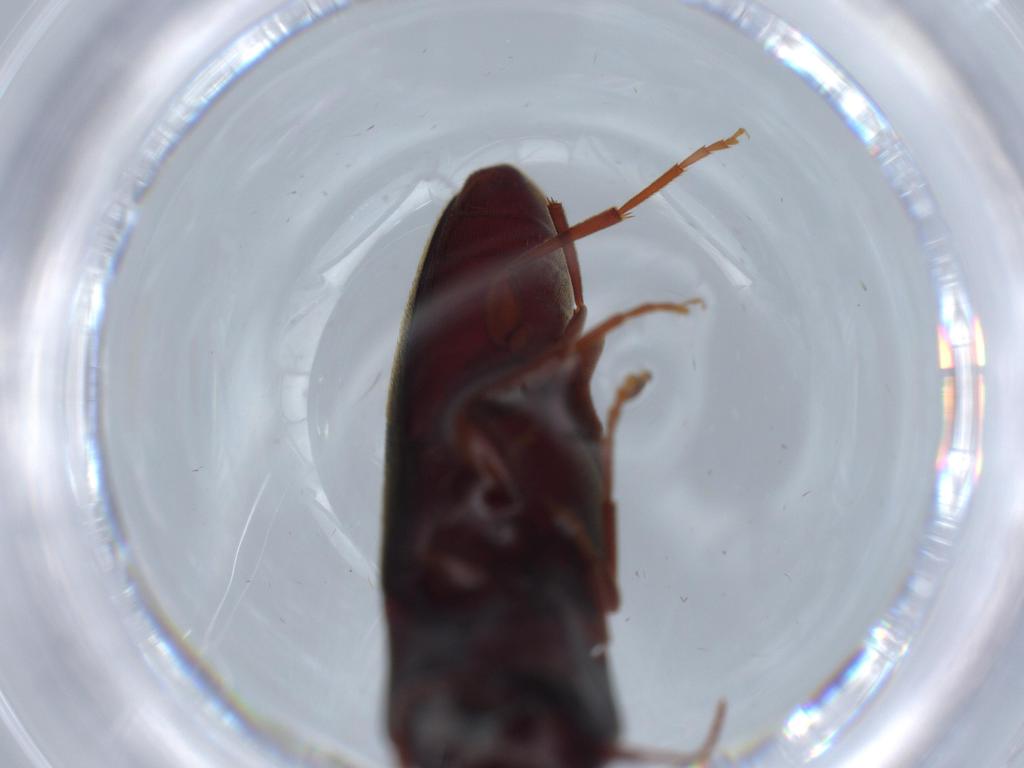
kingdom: Animalia
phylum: Arthropoda
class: Insecta
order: Coleoptera
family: Eucnemidae
